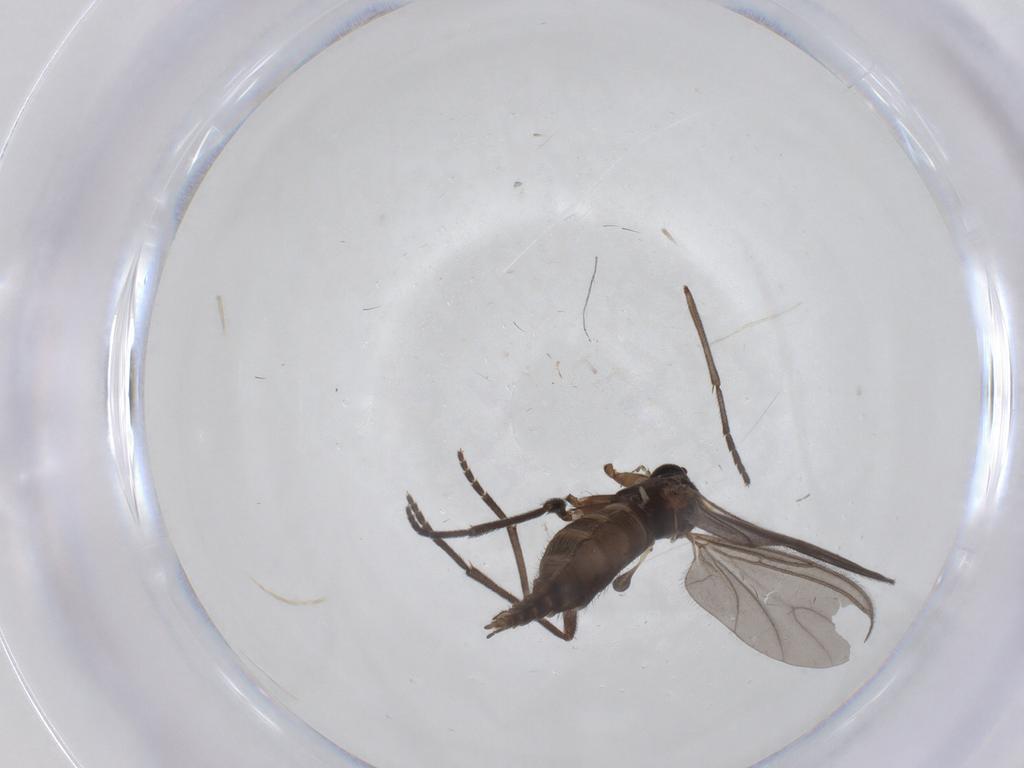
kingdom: Animalia
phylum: Arthropoda
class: Insecta
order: Diptera
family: Sciaridae
